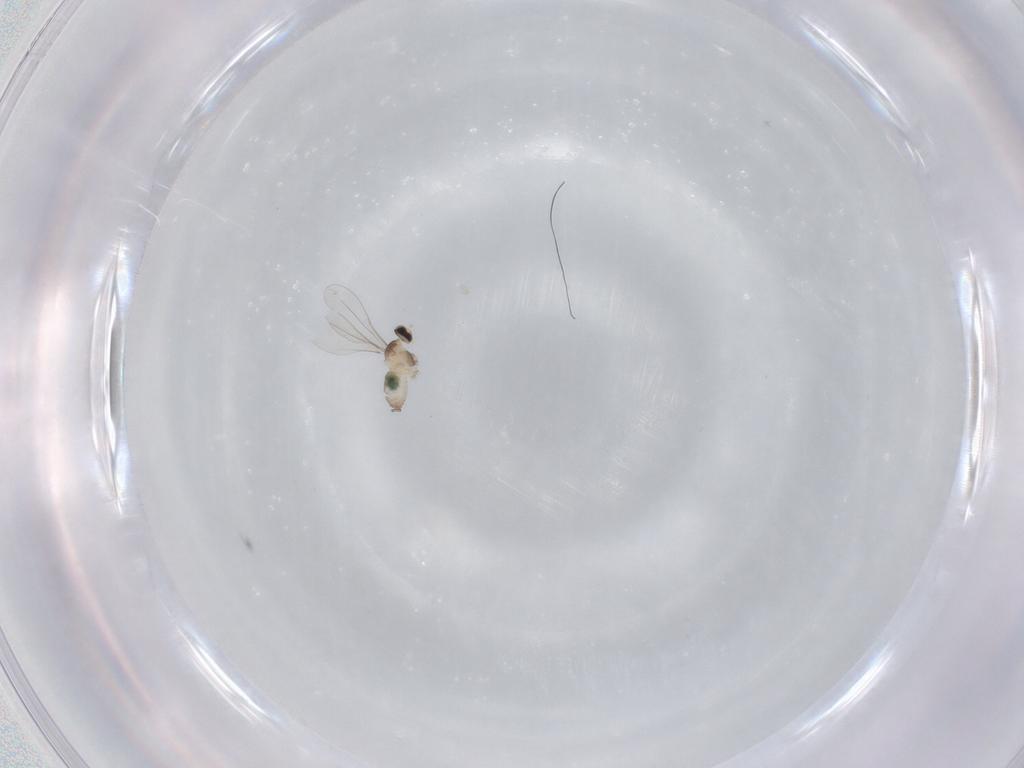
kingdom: Animalia
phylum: Arthropoda
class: Insecta
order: Diptera
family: Cecidomyiidae
